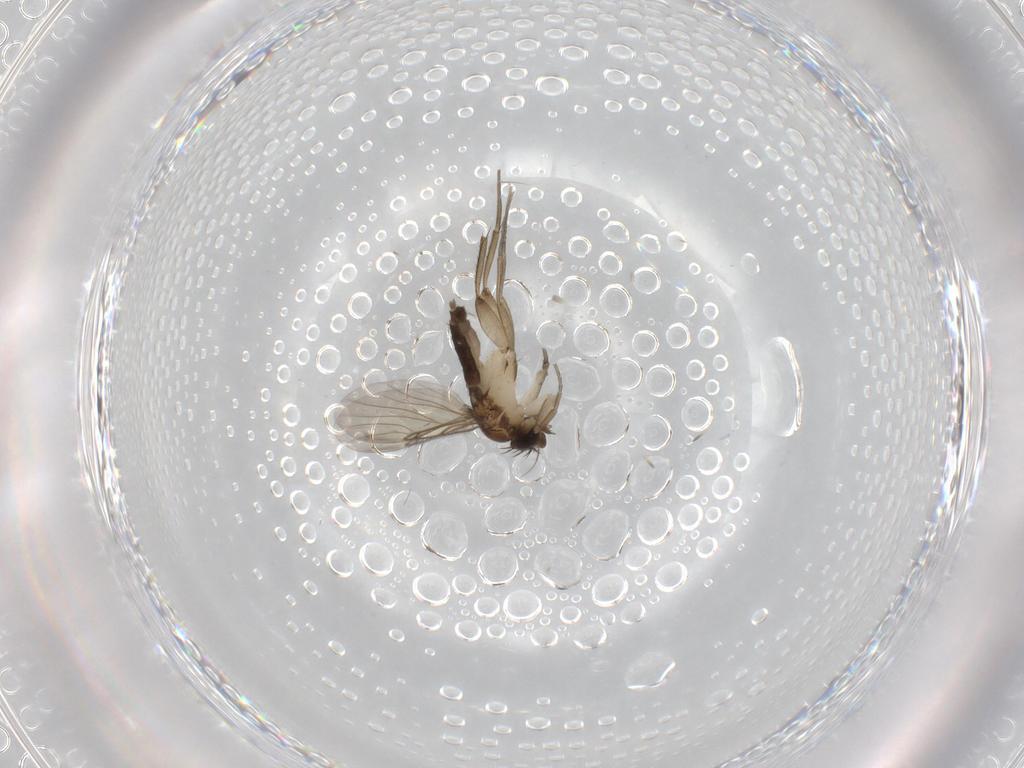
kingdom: Animalia
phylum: Arthropoda
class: Insecta
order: Diptera
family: Phoridae
